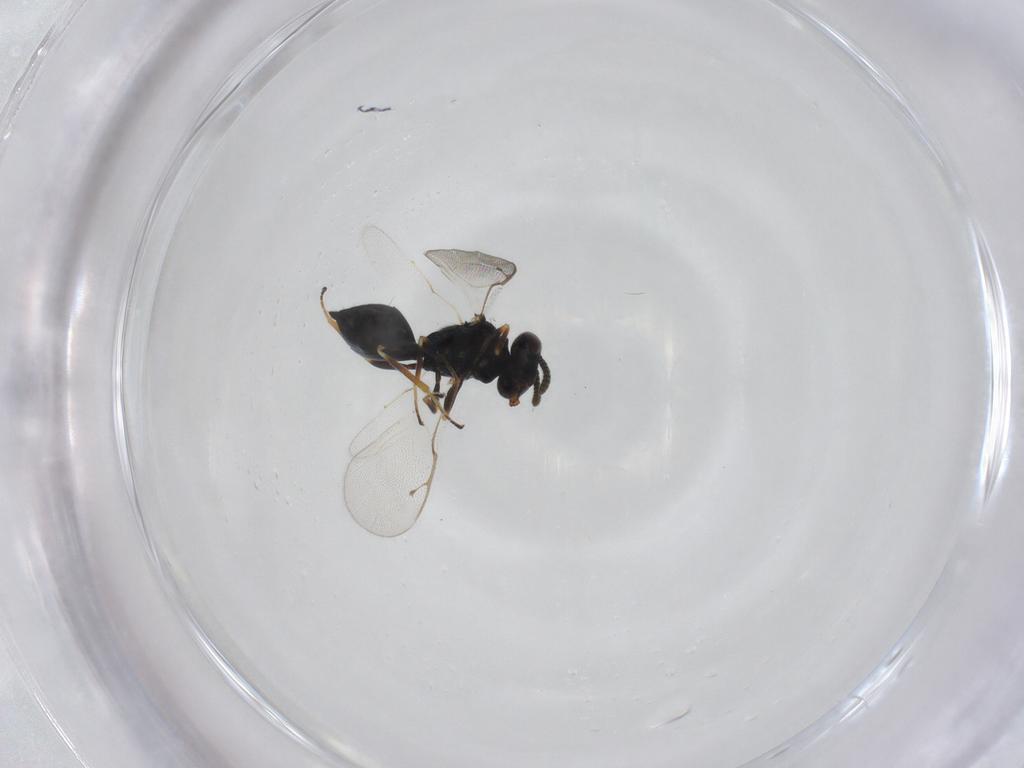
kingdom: Animalia
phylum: Arthropoda
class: Insecta
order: Hymenoptera
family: Pteromalidae
